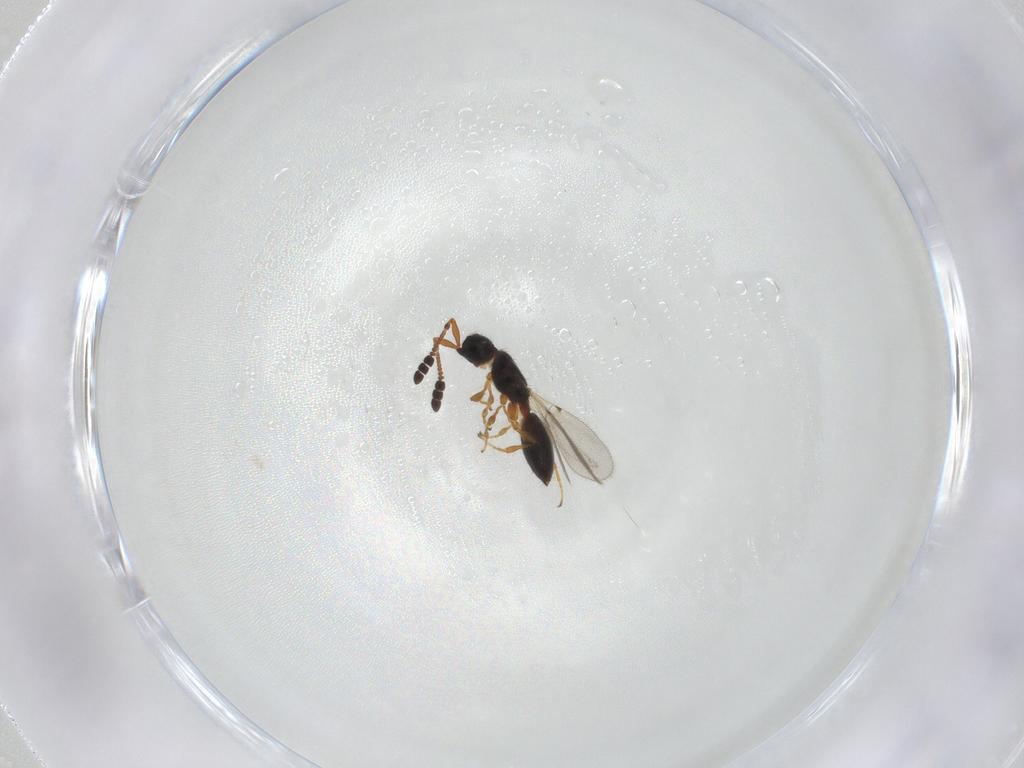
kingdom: Animalia
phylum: Arthropoda
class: Insecta
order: Hymenoptera
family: Diapriidae
